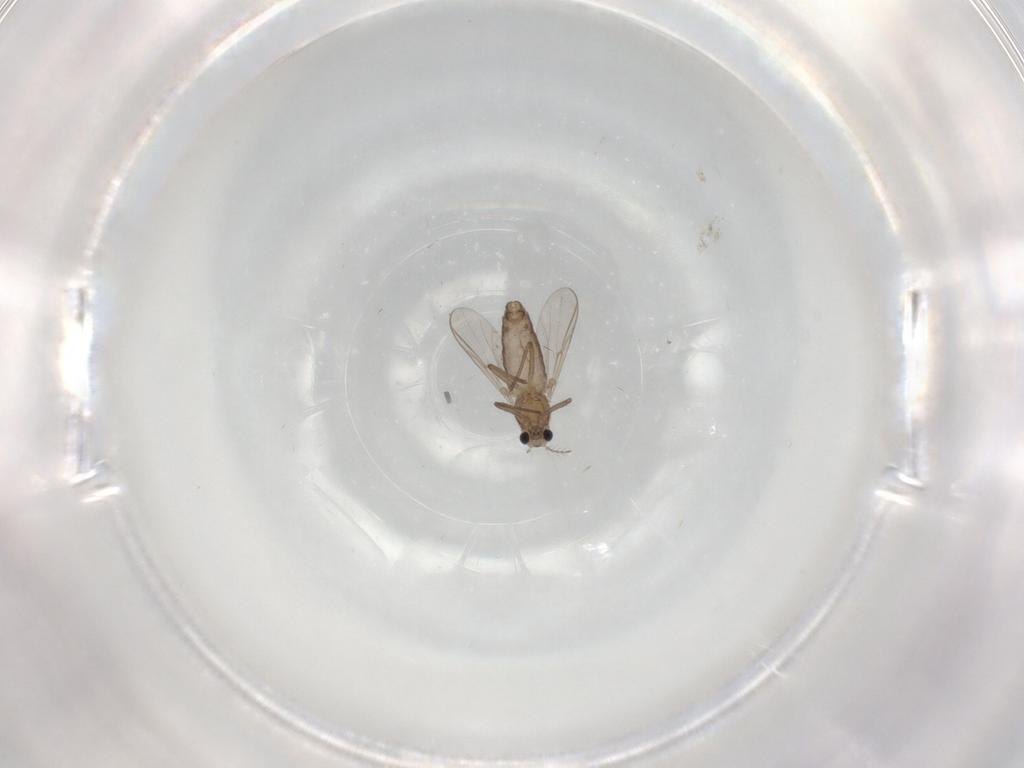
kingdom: Animalia
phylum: Arthropoda
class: Insecta
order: Diptera
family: Chironomidae
